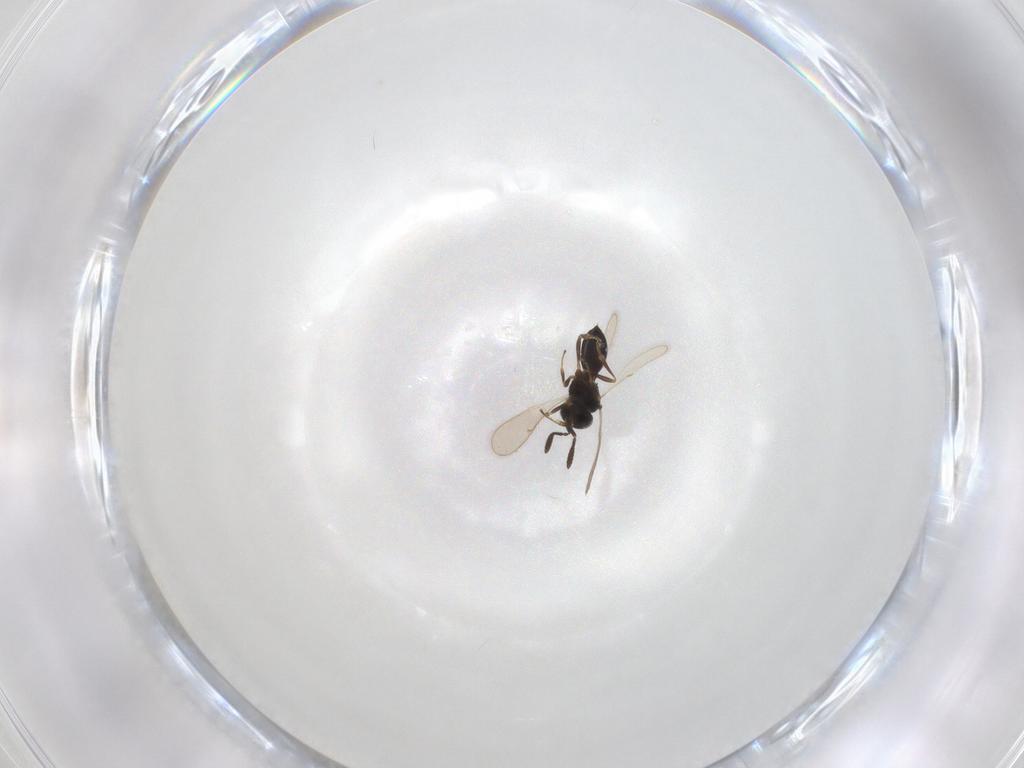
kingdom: Animalia
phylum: Arthropoda
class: Insecta
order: Hymenoptera
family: Scelionidae
